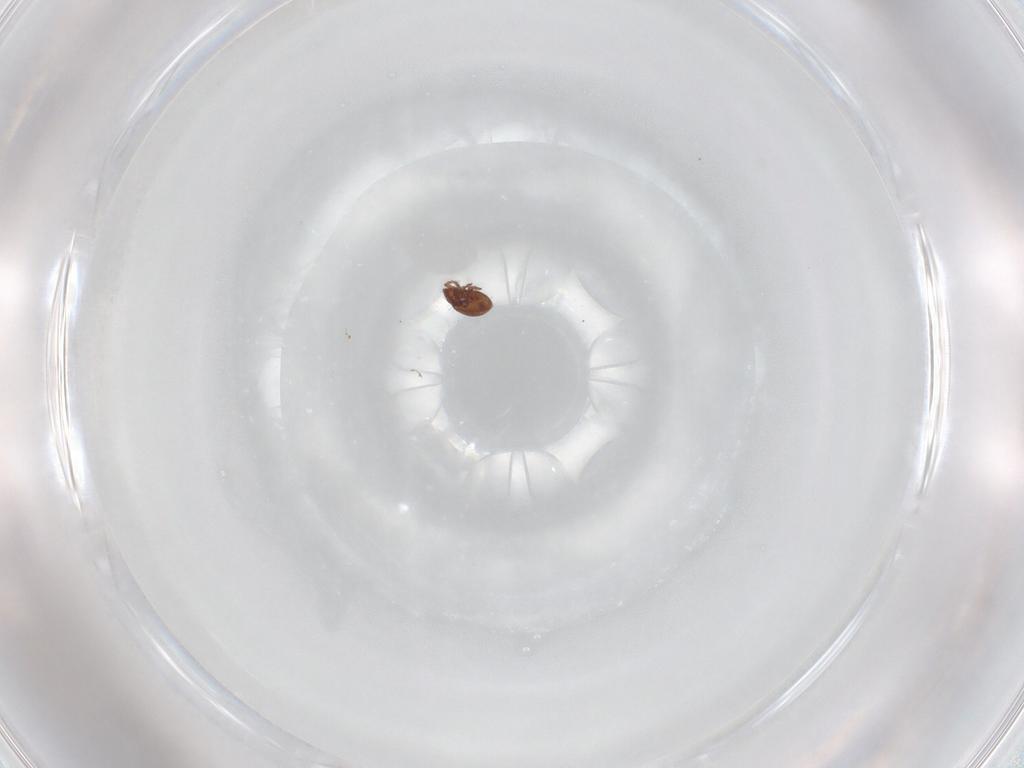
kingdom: Animalia
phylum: Arthropoda
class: Arachnida
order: Sarcoptiformes
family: Ceratoppiidae
